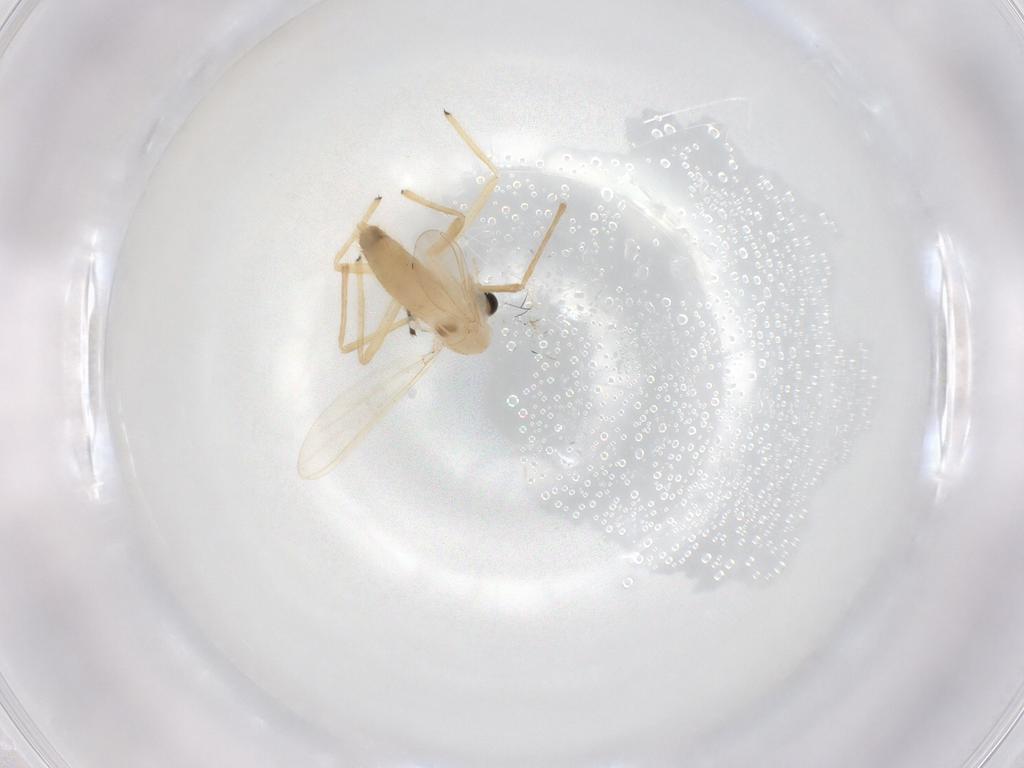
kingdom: Animalia
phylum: Arthropoda
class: Insecta
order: Diptera
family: Chironomidae
